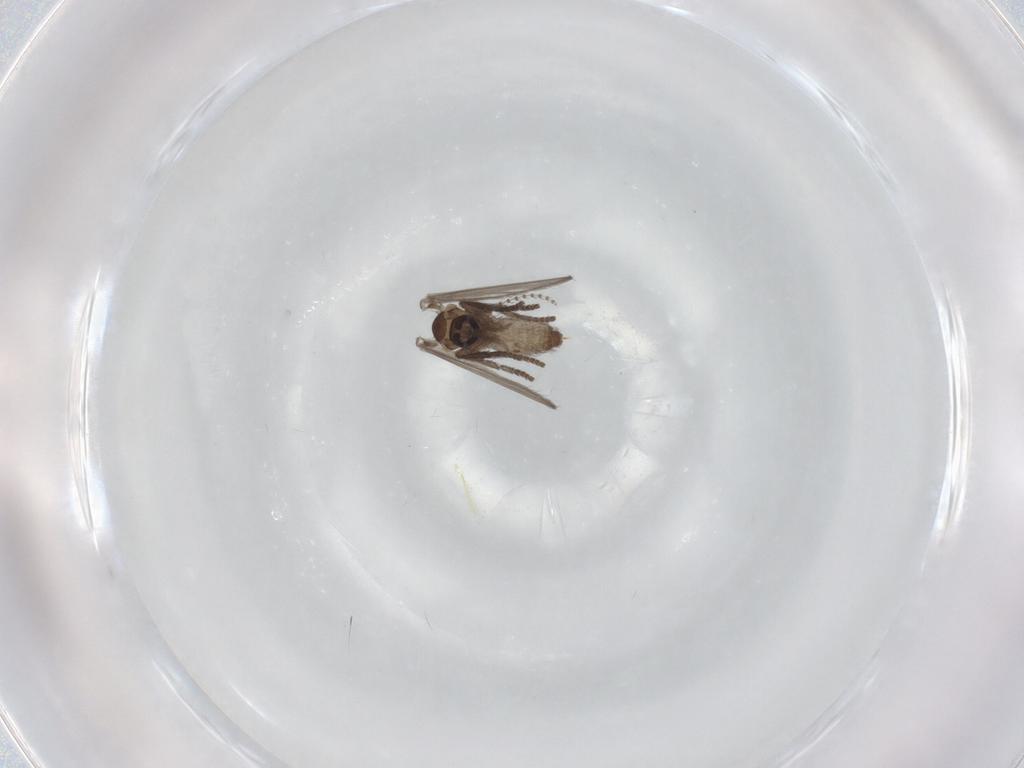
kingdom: Animalia
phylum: Arthropoda
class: Insecta
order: Diptera
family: Psychodidae
